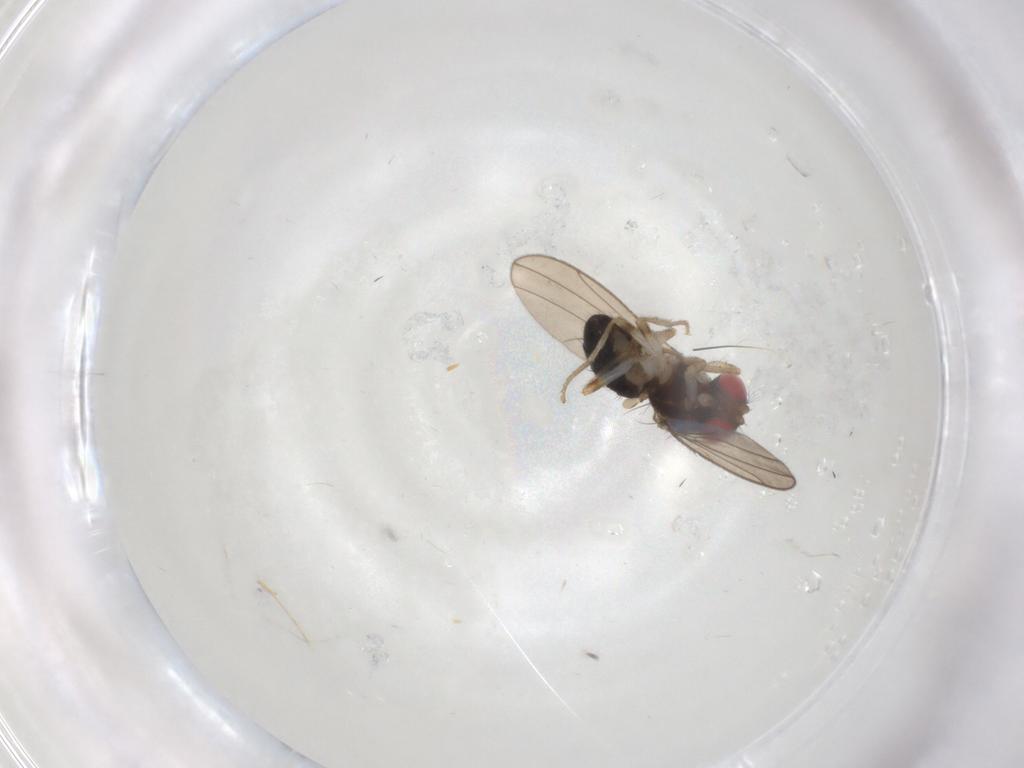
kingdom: Animalia
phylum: Arthropoda
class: Insecta
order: Diptera
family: Drosophilidae
